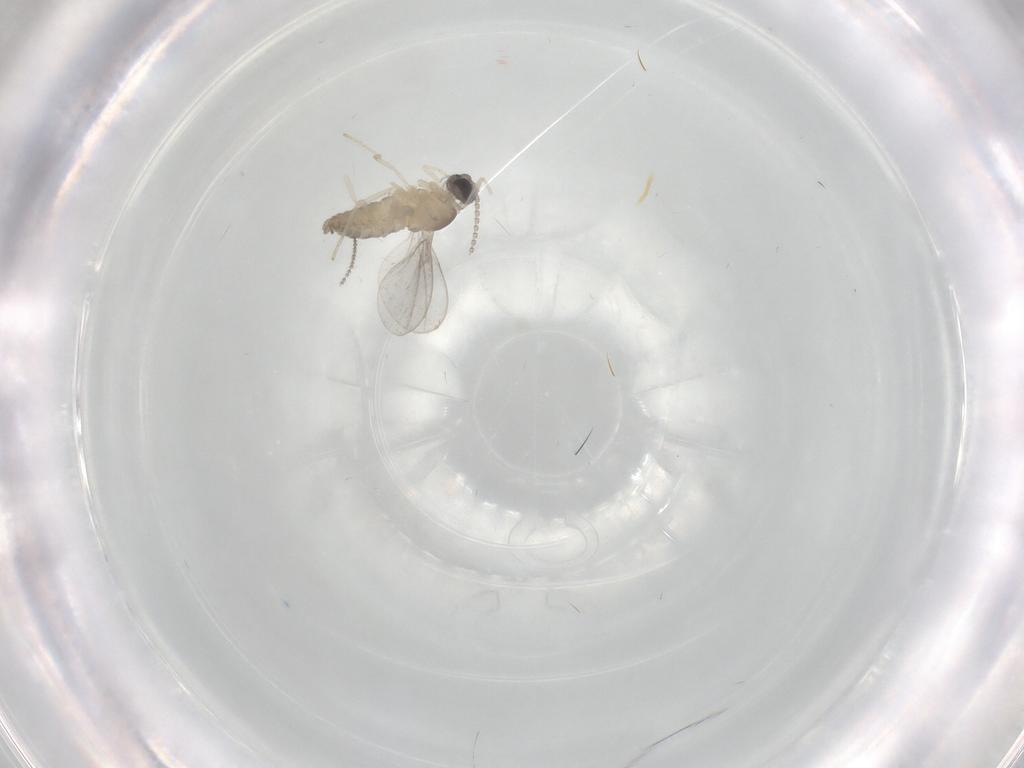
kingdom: Animalia
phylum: Arthropoda
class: Insecta
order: Diptera
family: Cecidomyiidae
